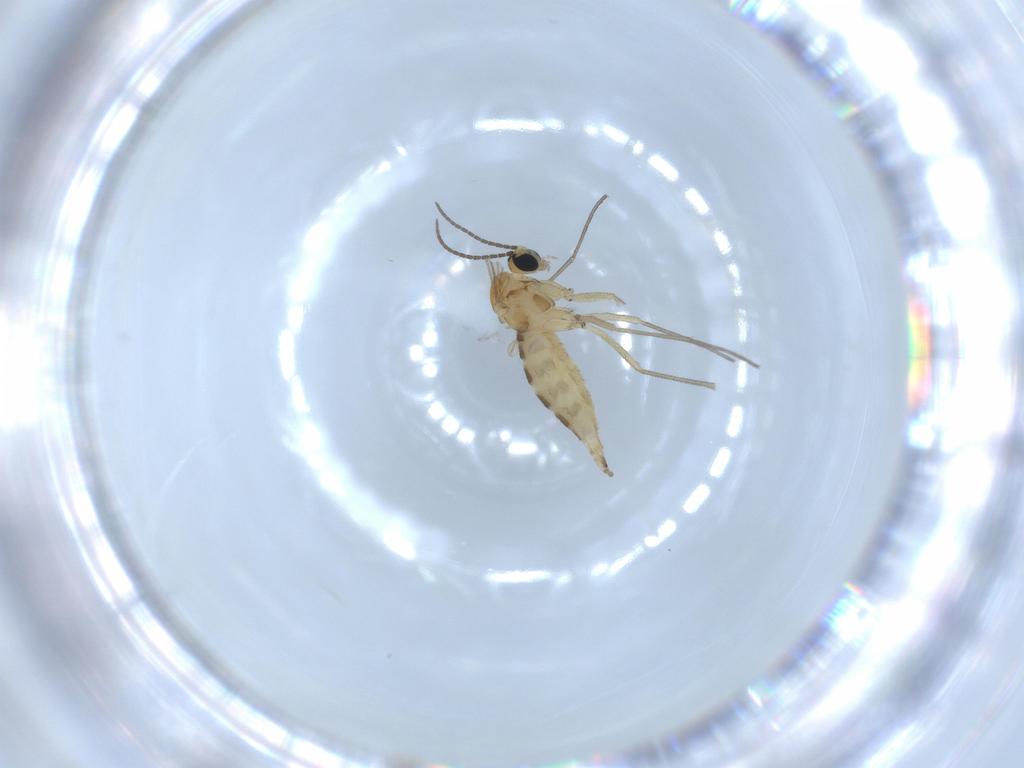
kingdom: Animalia
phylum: Arthropoda
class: Insecta
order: Diptera
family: Sciaridae
